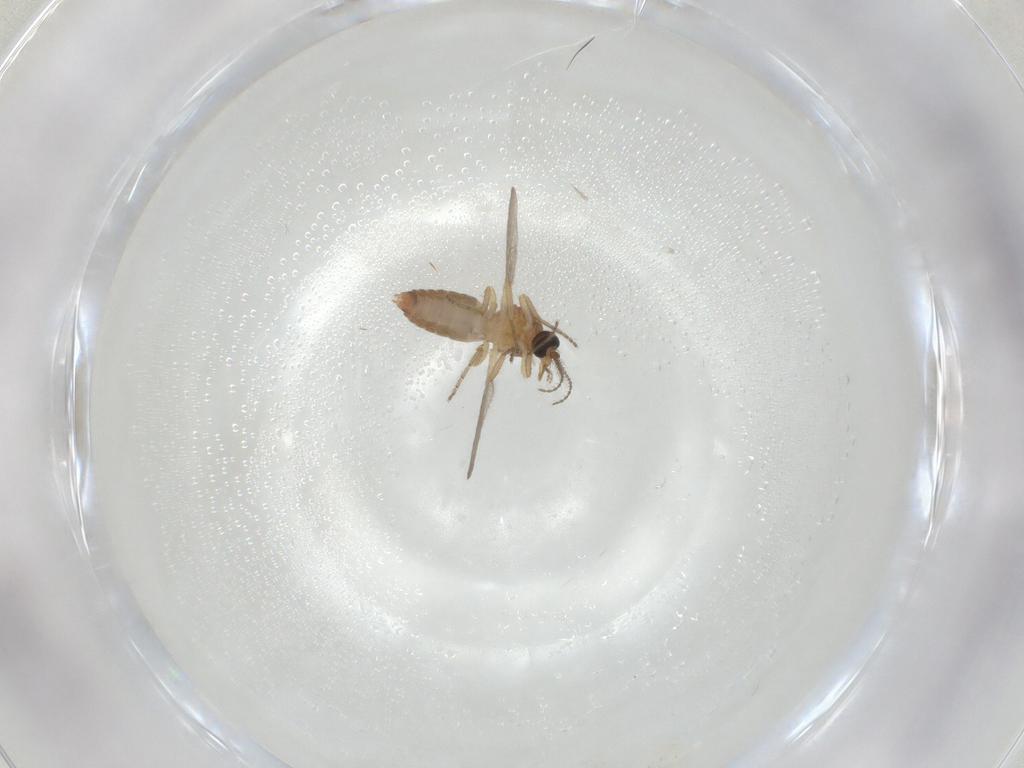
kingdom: Animalia
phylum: Arthropoda
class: Insecta
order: Diptera
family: Ceratopogonidae
